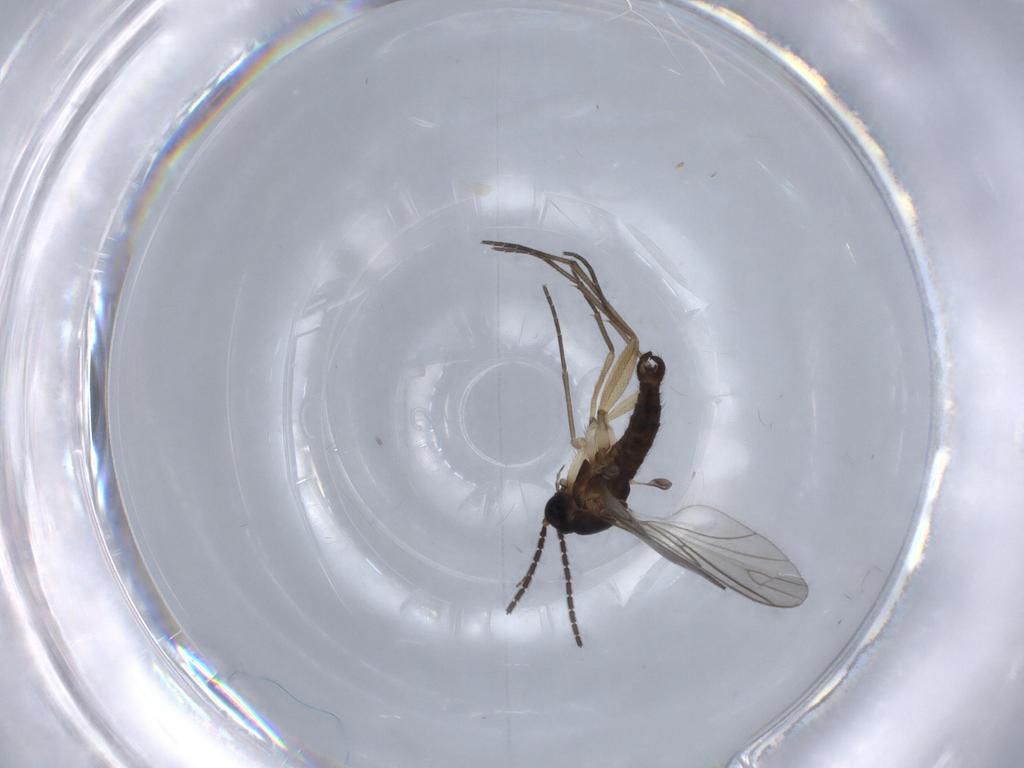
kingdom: Animalia
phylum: Arthropoda
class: Insecta
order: Diptera
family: Sciaridae
